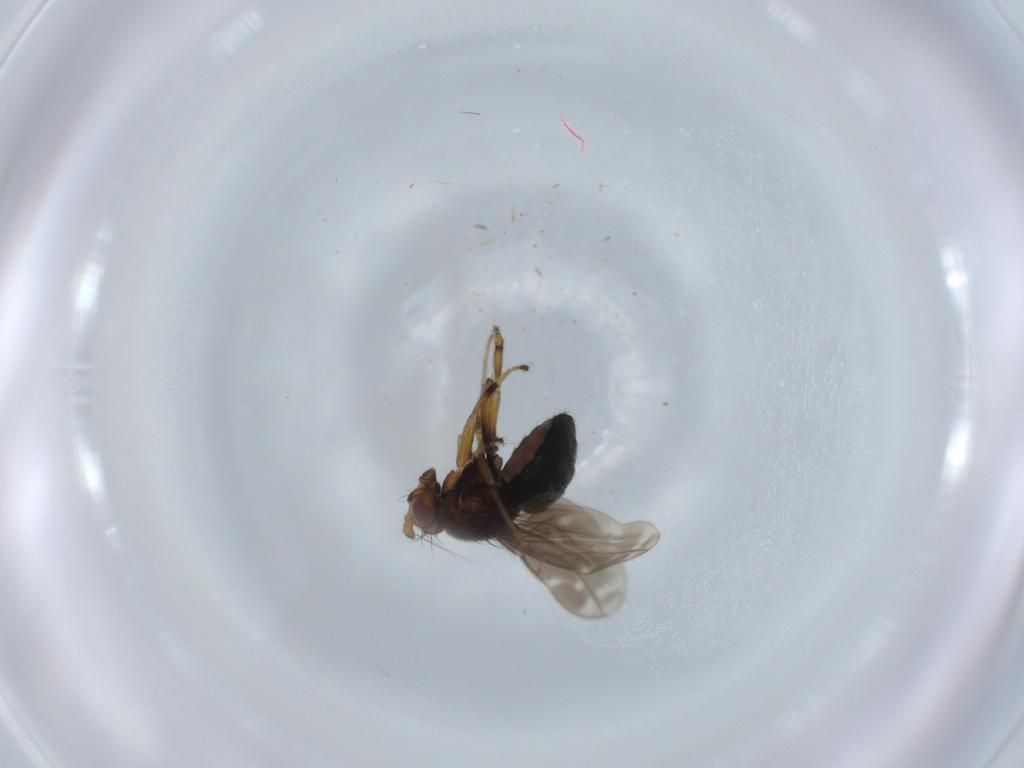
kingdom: Animalia
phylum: Arthropoda
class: Insecta
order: Diptera
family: Sphaeroceridae
